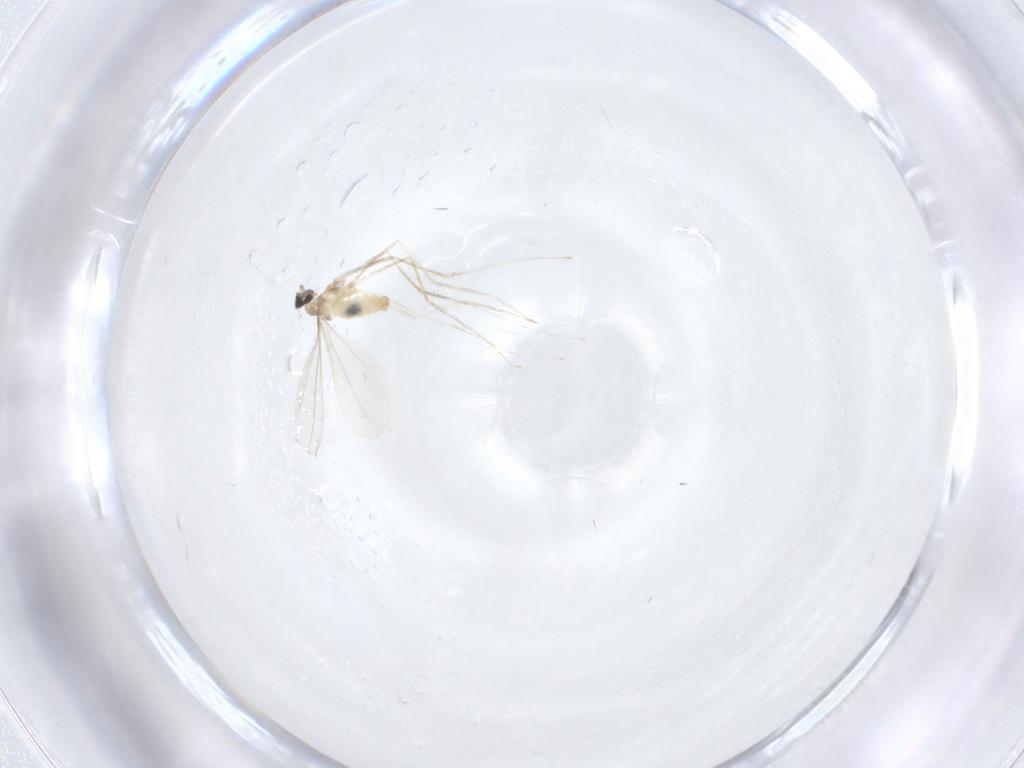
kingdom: Animalia
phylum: Arthropoda
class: Insecta
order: Diptera
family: Cecidomyiidae
